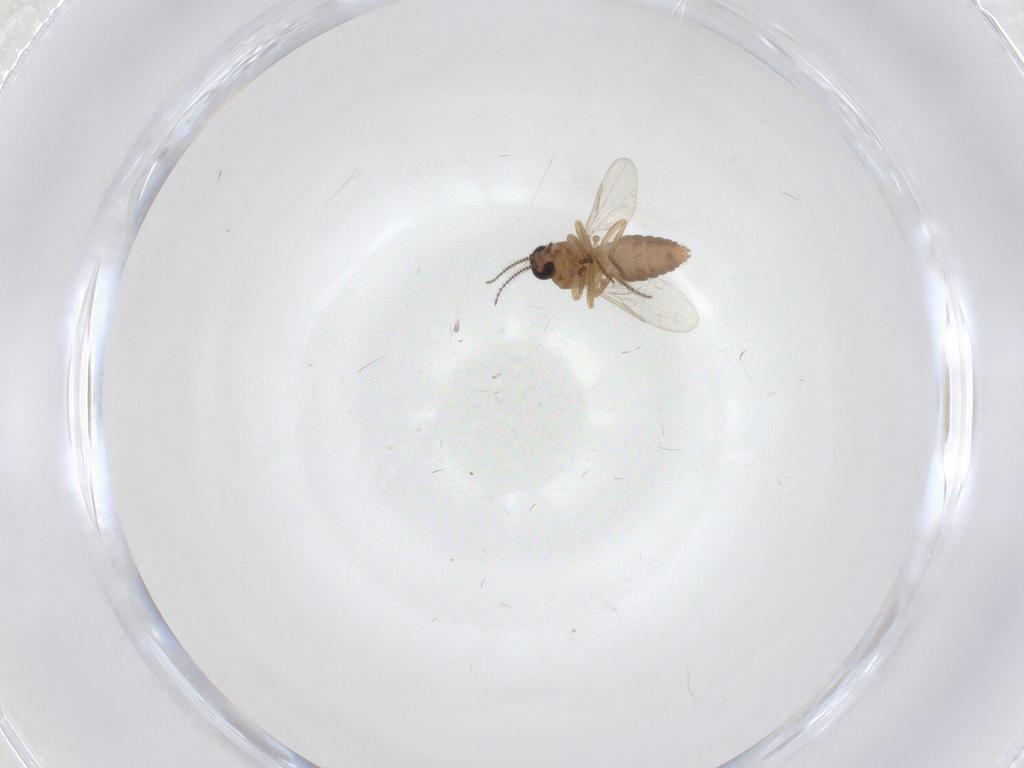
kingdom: Animalia
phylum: Arthropoda
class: Insecta
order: Diptera
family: Ceratopogonidae
